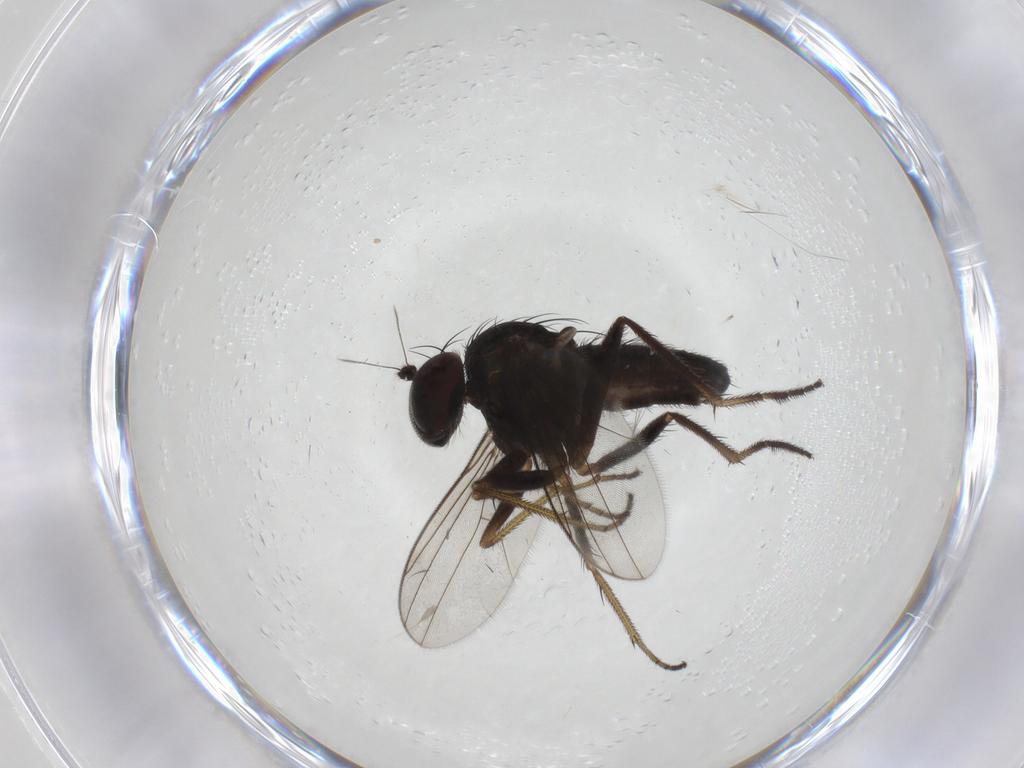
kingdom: Animalia
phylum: Arthropoda
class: Insecta
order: Diptera
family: Dolichopodidae
